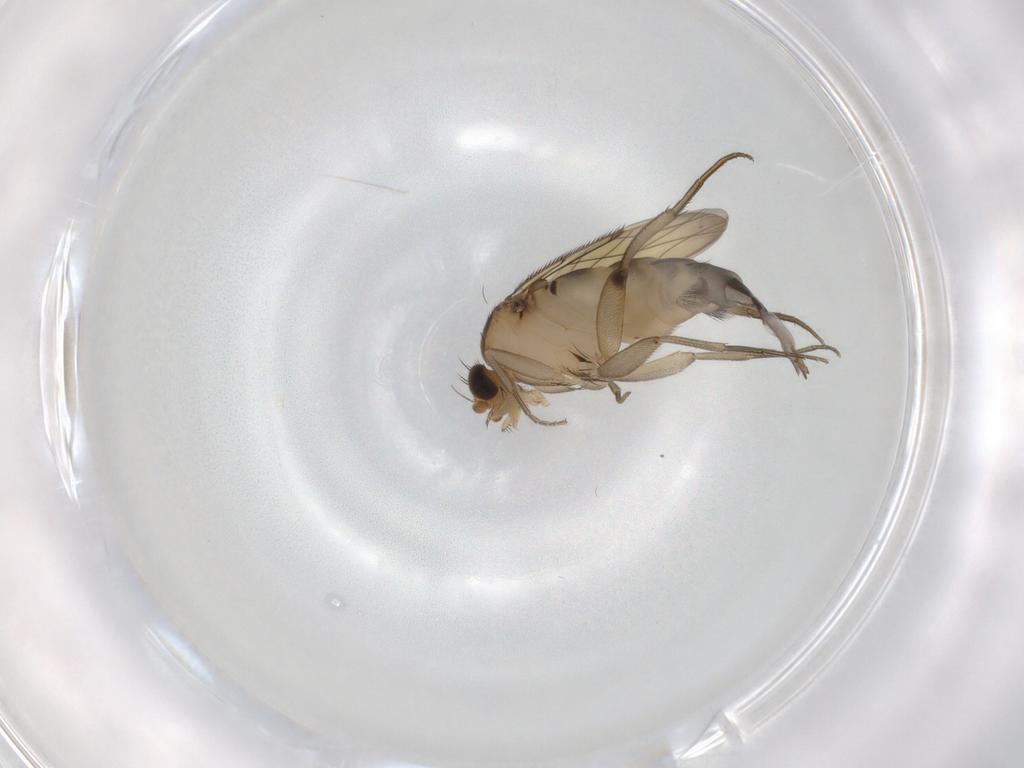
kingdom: Animalia
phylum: Arthropoda
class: Insecta
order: Diptera
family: Phoridae
